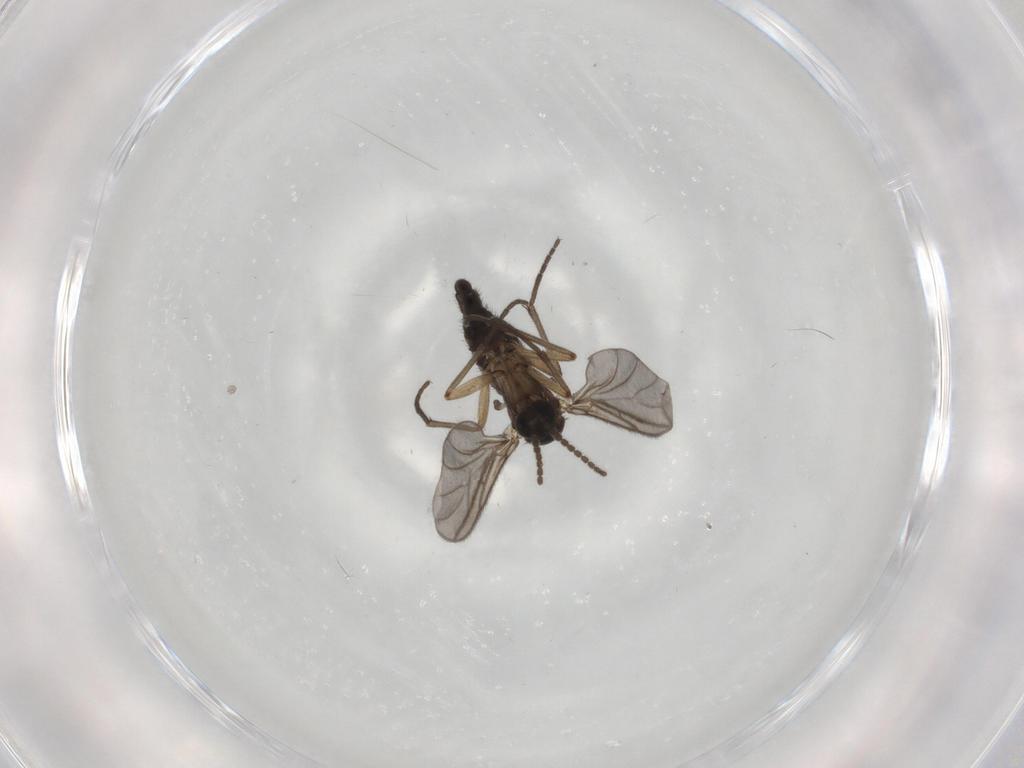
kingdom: Animalia
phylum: Arthropoda
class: Insecta
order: Diptera
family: Sciaridae
